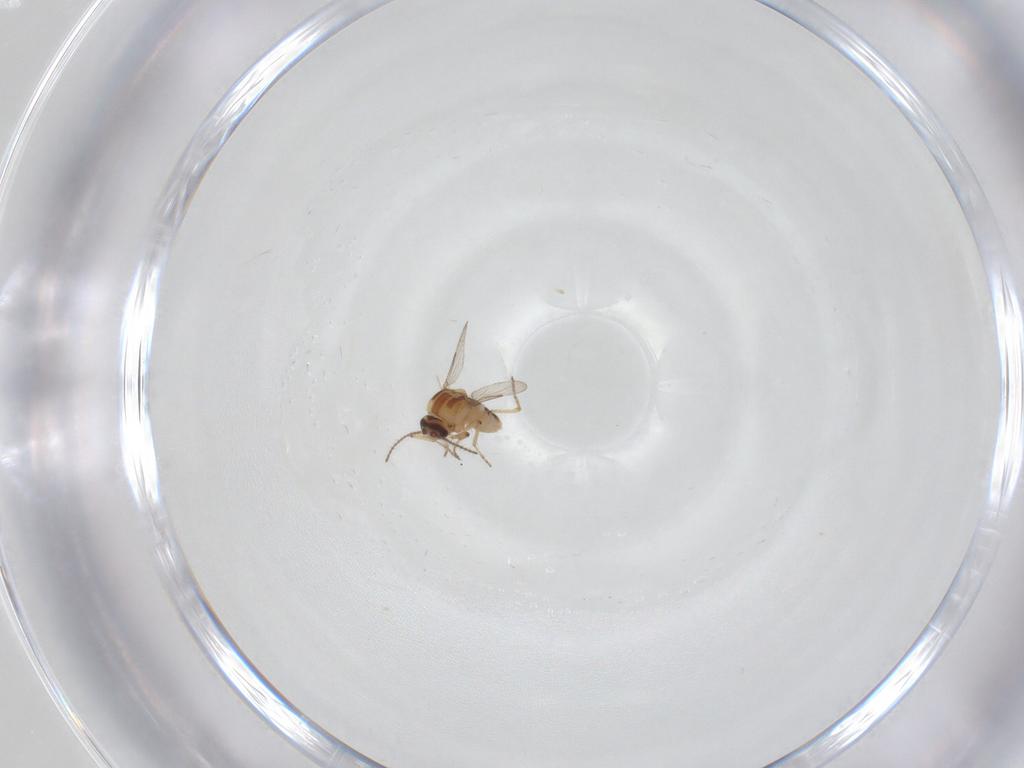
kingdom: Animalia
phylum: Arthropoda
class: Insecta
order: Diptera
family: Ceratopogonidae
